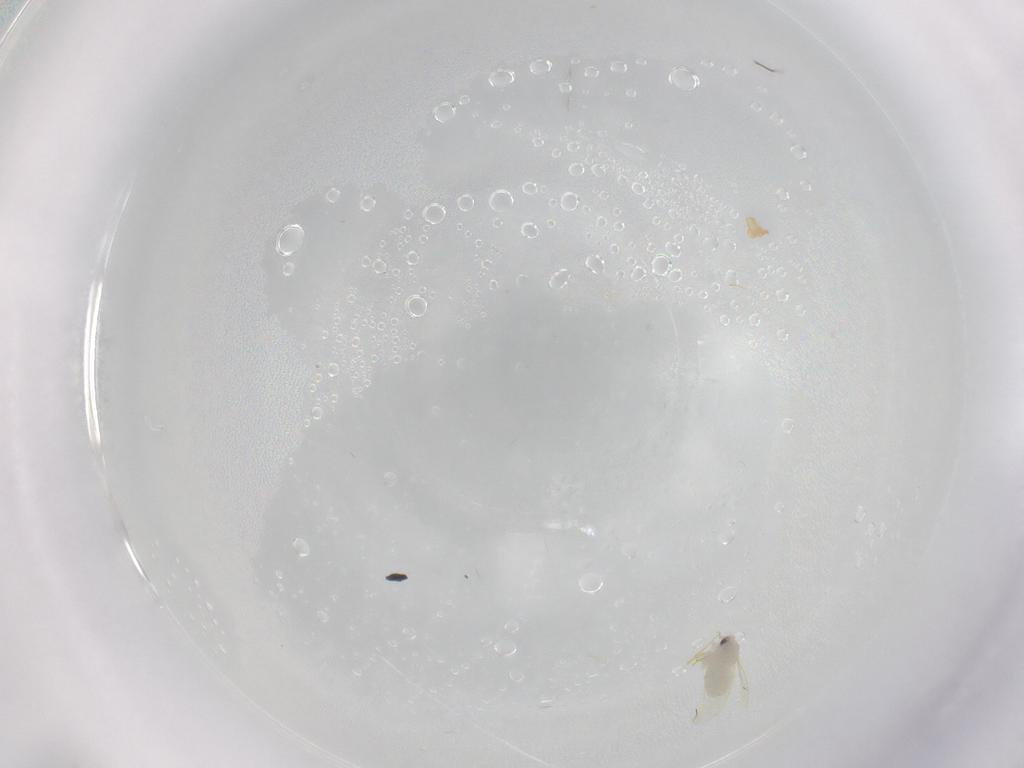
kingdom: Animalia
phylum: Arthropoda
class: Insecta
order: Hemiptera
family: Aleyrodidae
